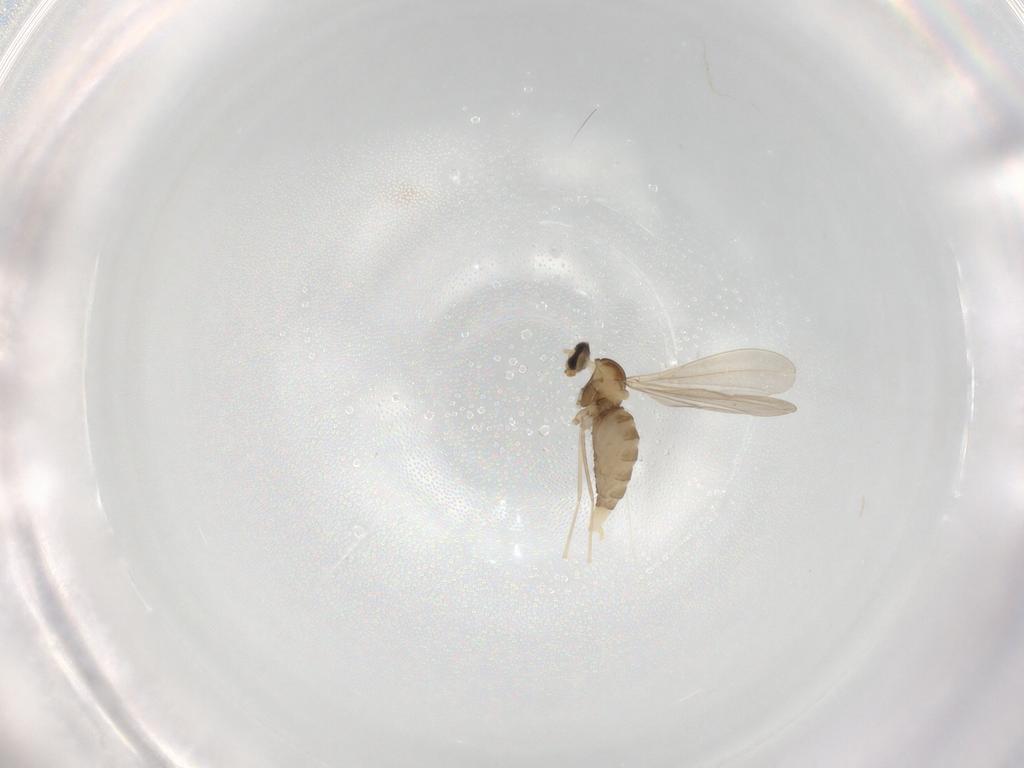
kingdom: Animalia
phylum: Arthropoda
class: Insecta
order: Diptera
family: Cecidomyiidae
